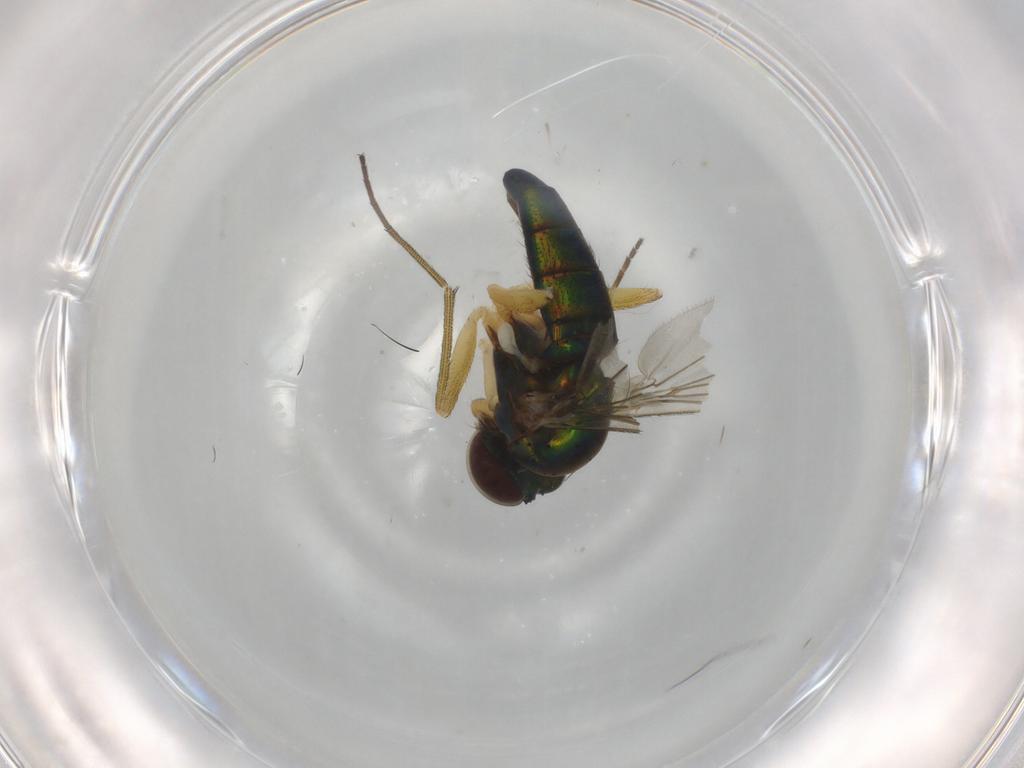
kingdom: Animalia
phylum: Arthropoda
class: Insecta
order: Diptera
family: Dolichopodidae
